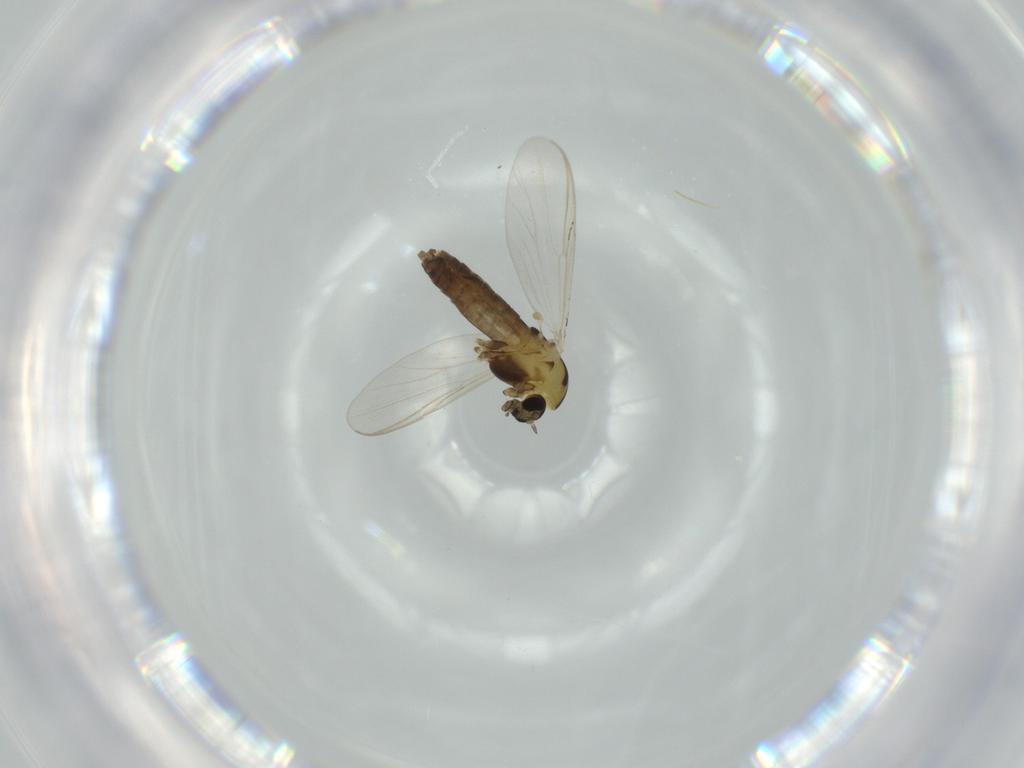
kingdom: Animalia
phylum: Arthropoda
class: Insecta
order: Diptera
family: Chironomidae
